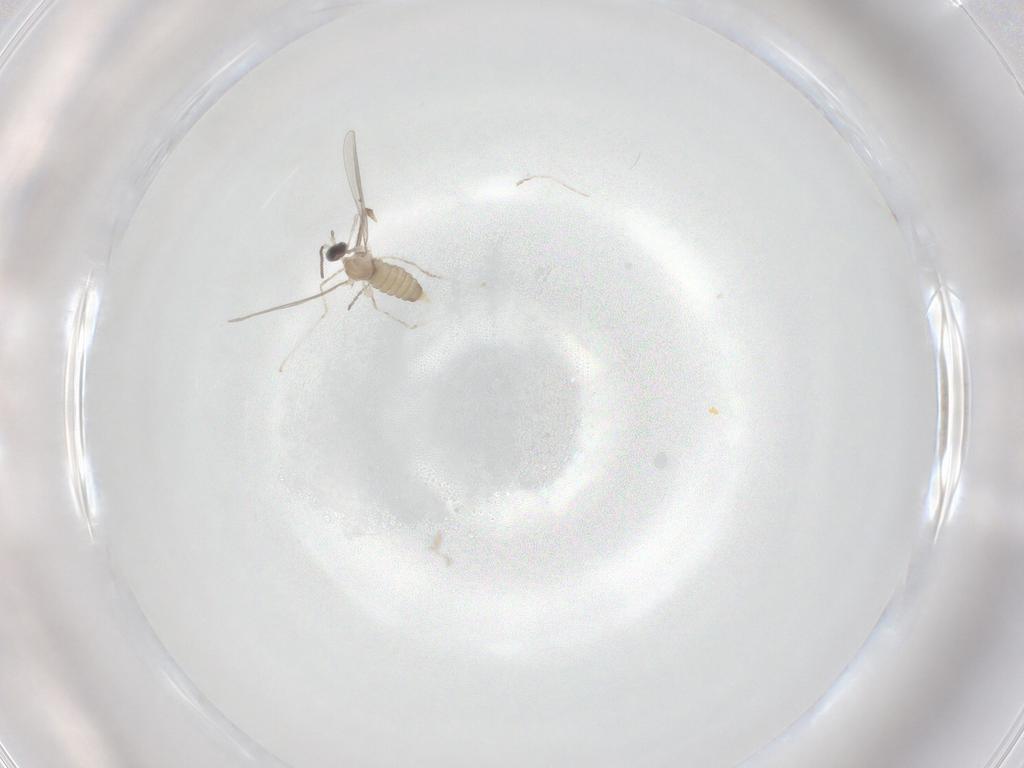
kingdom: Animalia
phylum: Arthropoda
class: Insecta
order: Diptera
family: Cecidomyiidae
